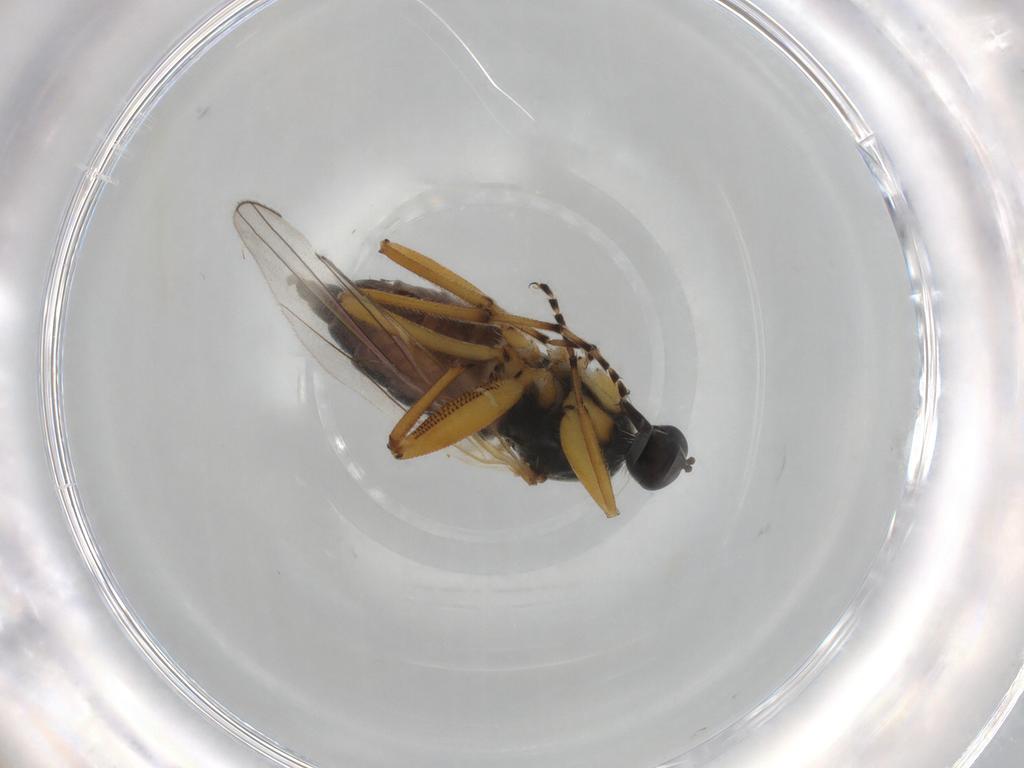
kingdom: Animalia
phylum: Arthropoda
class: Insecta
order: Diptera
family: Hybotidae
